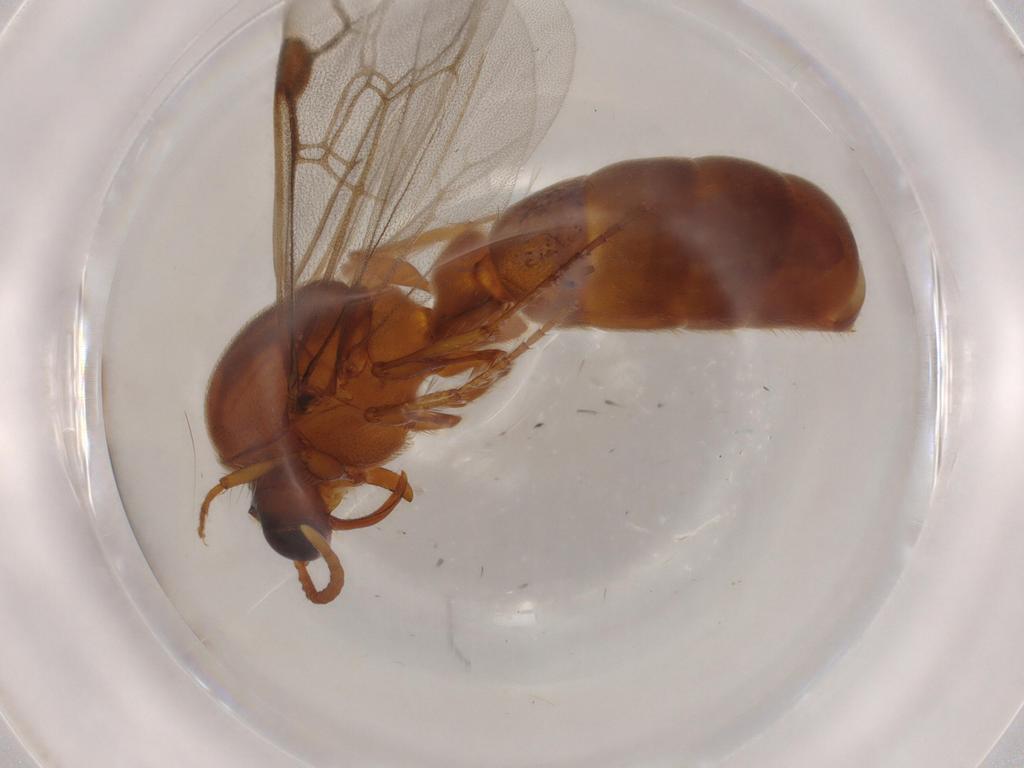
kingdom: Animalia
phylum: Arthropoda
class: Insecta
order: Hymenoptera
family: Formicidae
